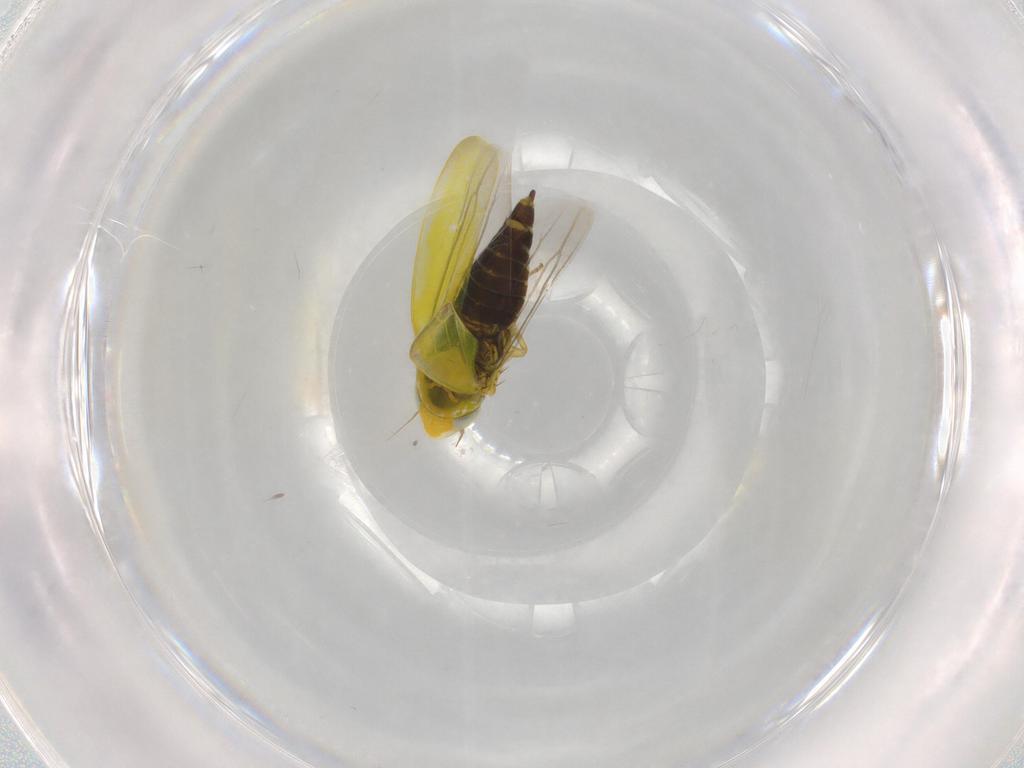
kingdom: Animalia
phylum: Arthropoda
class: Insecta
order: Hemiptera
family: Cicadellidae
